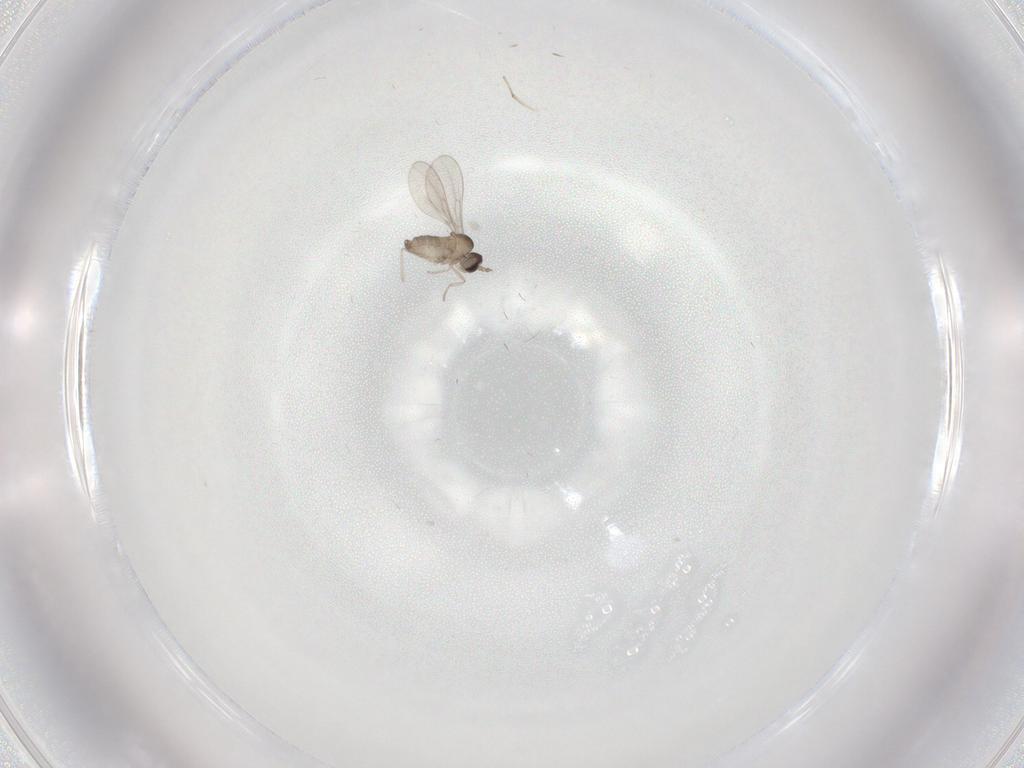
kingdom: Animalia
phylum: Arthropoda
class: Insecta
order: Diptera
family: Cecidomyiidae
